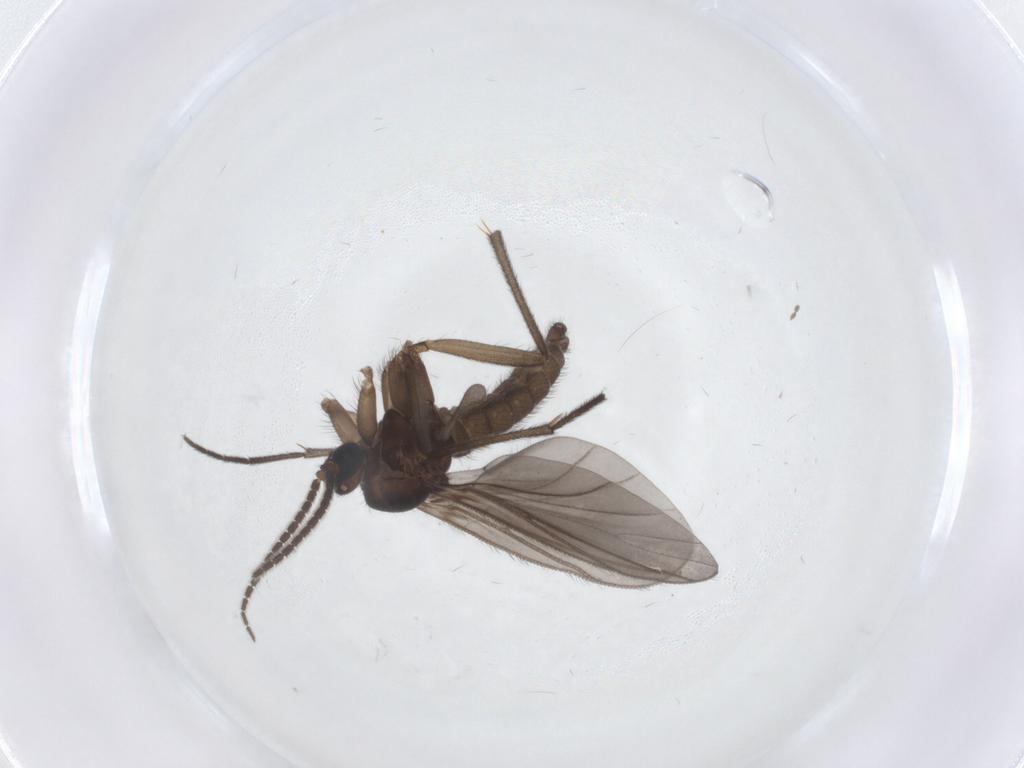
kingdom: Animalia
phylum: Arthropoda
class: Insecta
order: Diptera
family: Sciaridae
